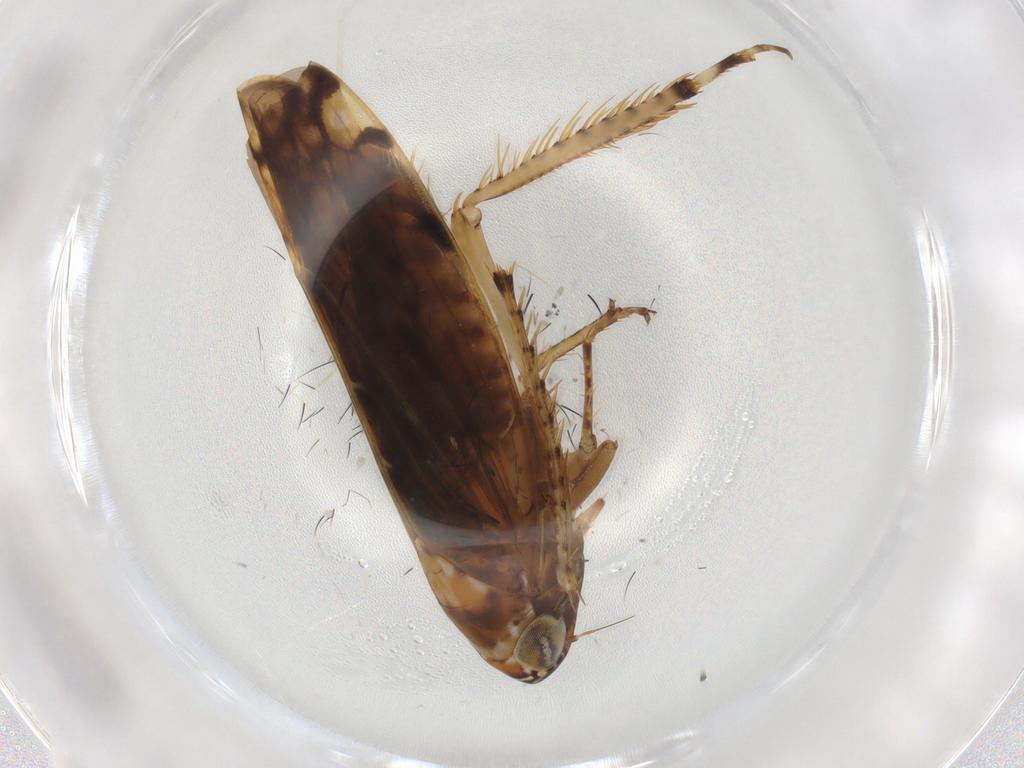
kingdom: Animalia
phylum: Arthropoda
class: Insecta
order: Hemiptera
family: Cicadellidae
